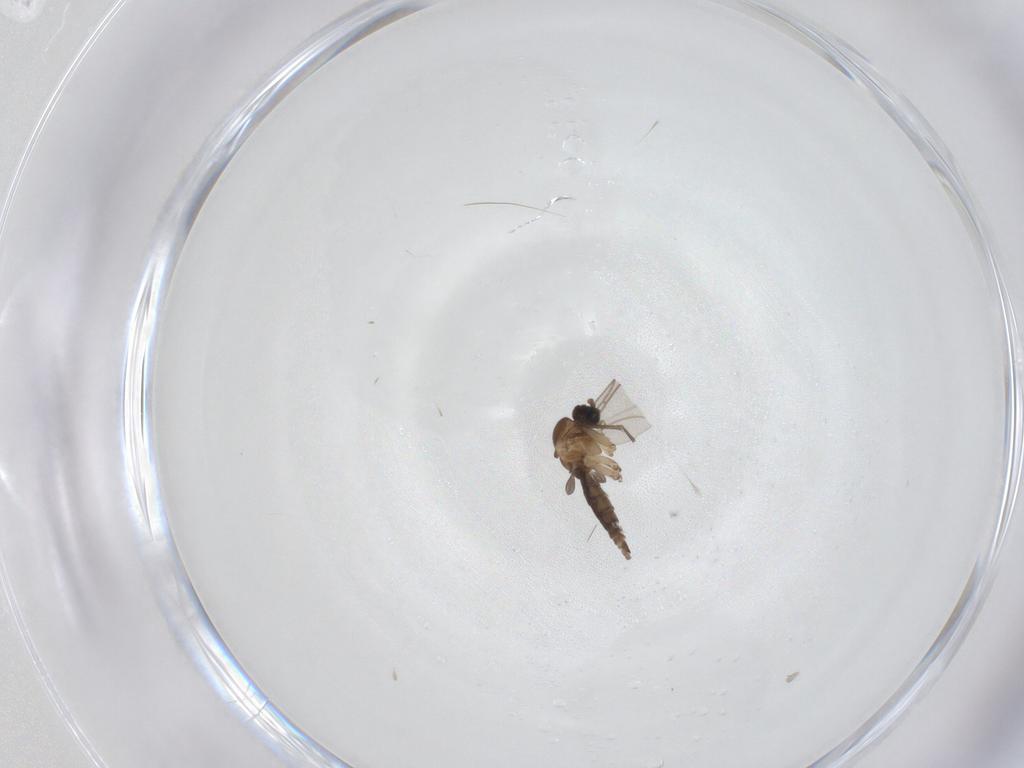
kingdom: Animalia
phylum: Arthropoda
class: Insecta
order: Diptera
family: Sciaridae
